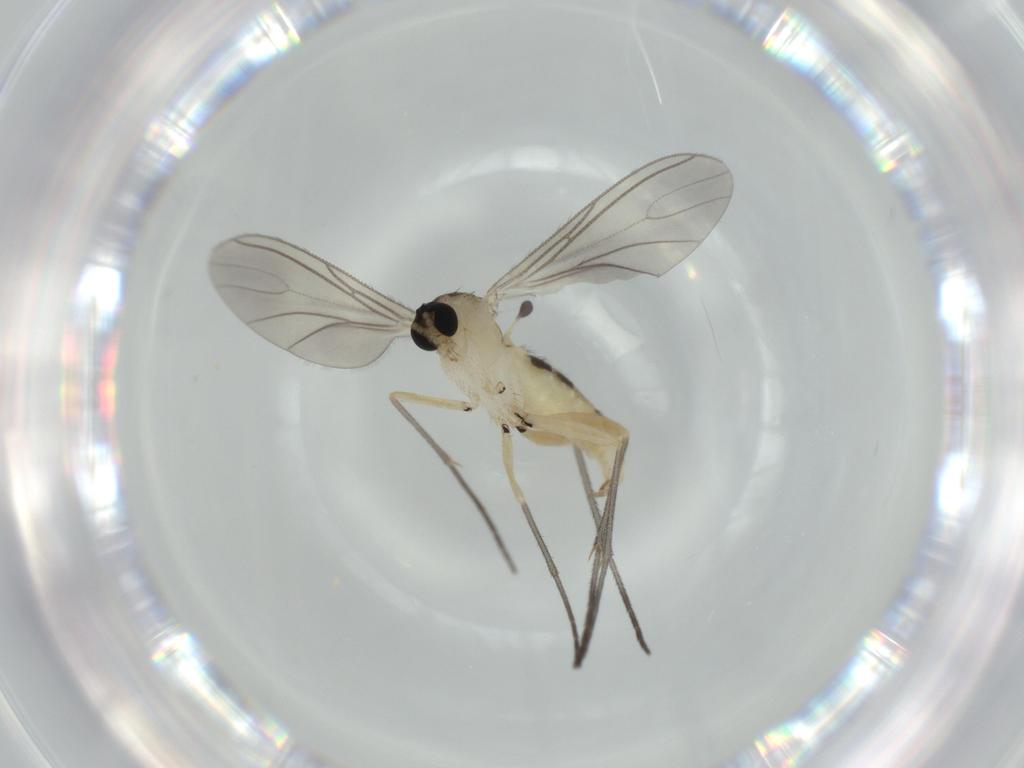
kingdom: Animalia
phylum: Arthropoda
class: Insecta
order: Diptera
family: Sciaridae
